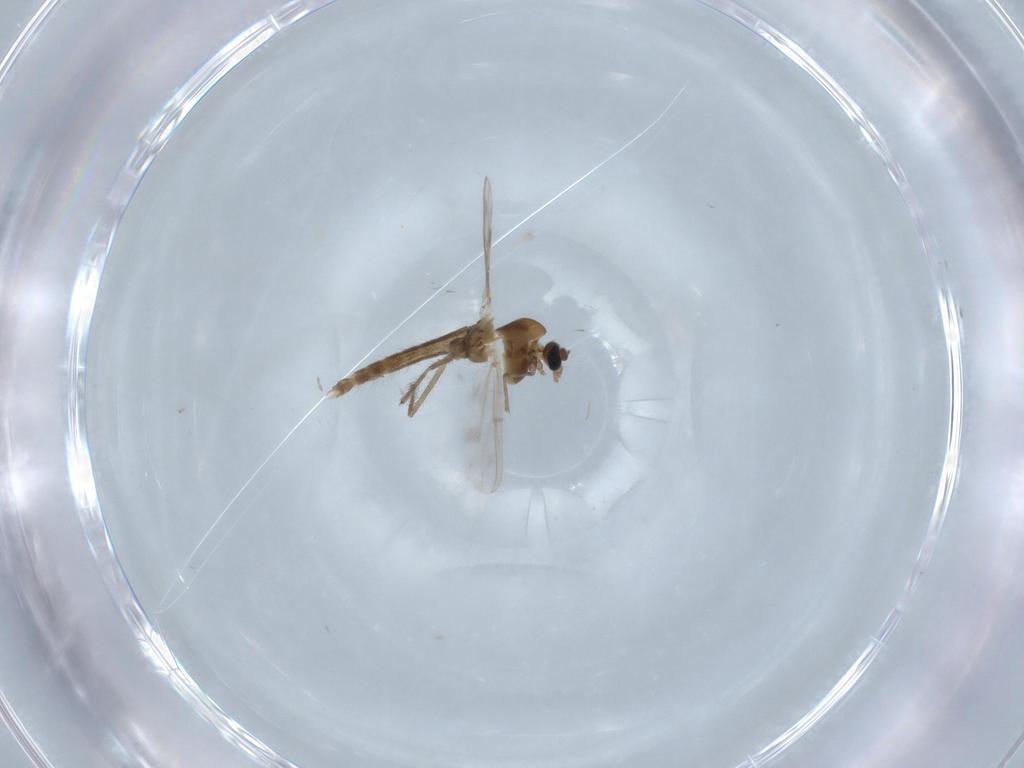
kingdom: Animalia
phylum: Arthropoda
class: Insecta
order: Diptera
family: Chironomidae
